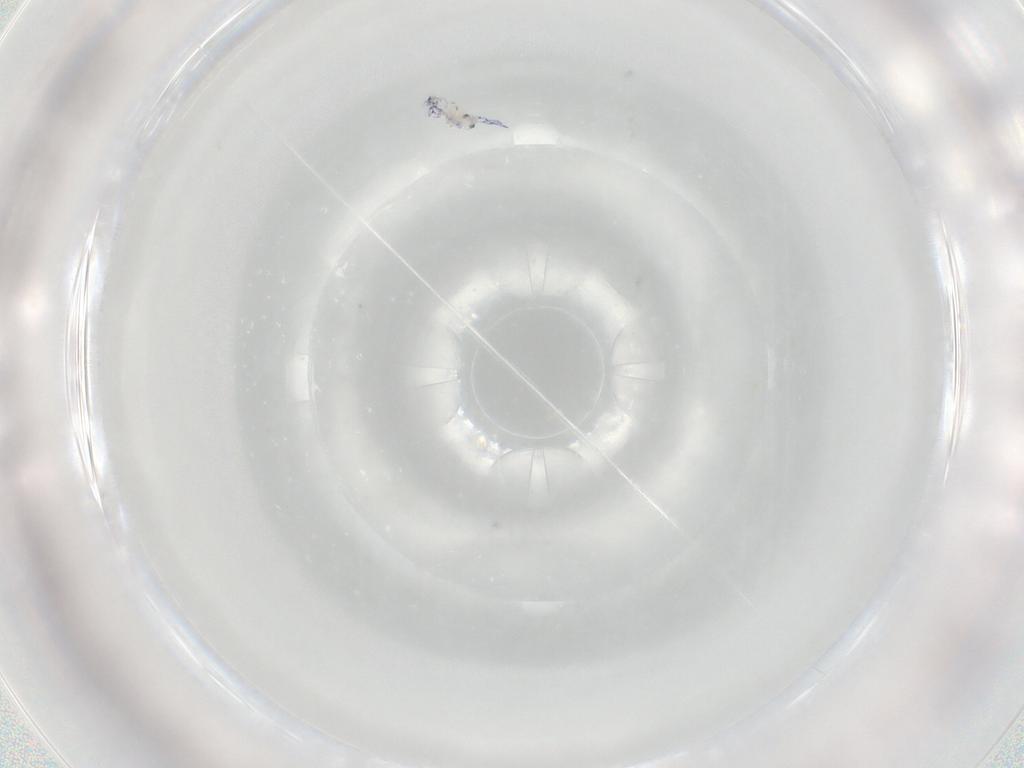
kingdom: Animalia
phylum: Arthropoda
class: Collembola
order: Entomobryomorpha
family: Entomobryidae
